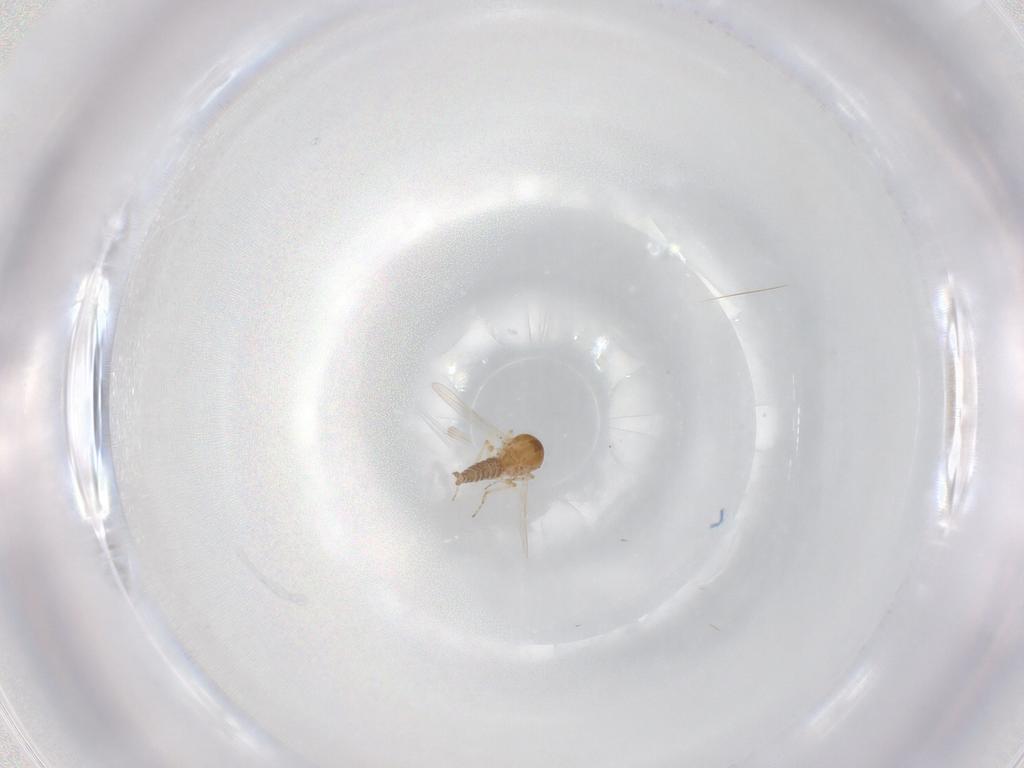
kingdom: Animalia
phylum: Arthropoda
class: Insecta
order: Diptera
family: Ceratopogonidae
